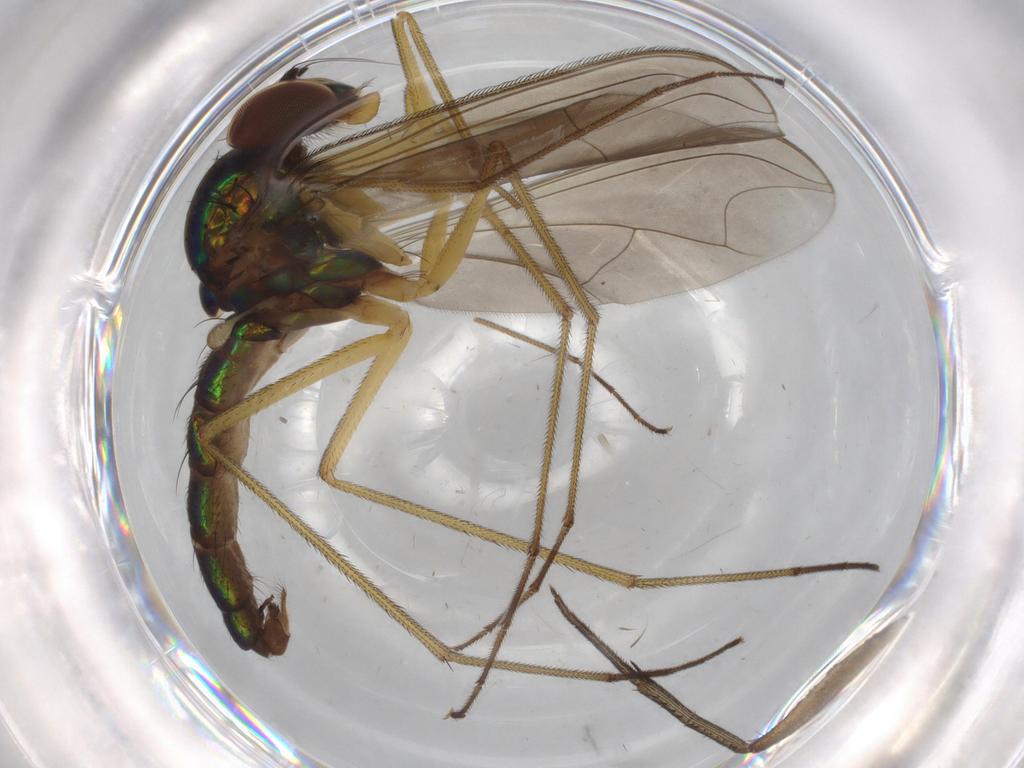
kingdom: Animalia
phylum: Arthropoda
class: Insecta
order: Diptera
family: Dolichopodidae
